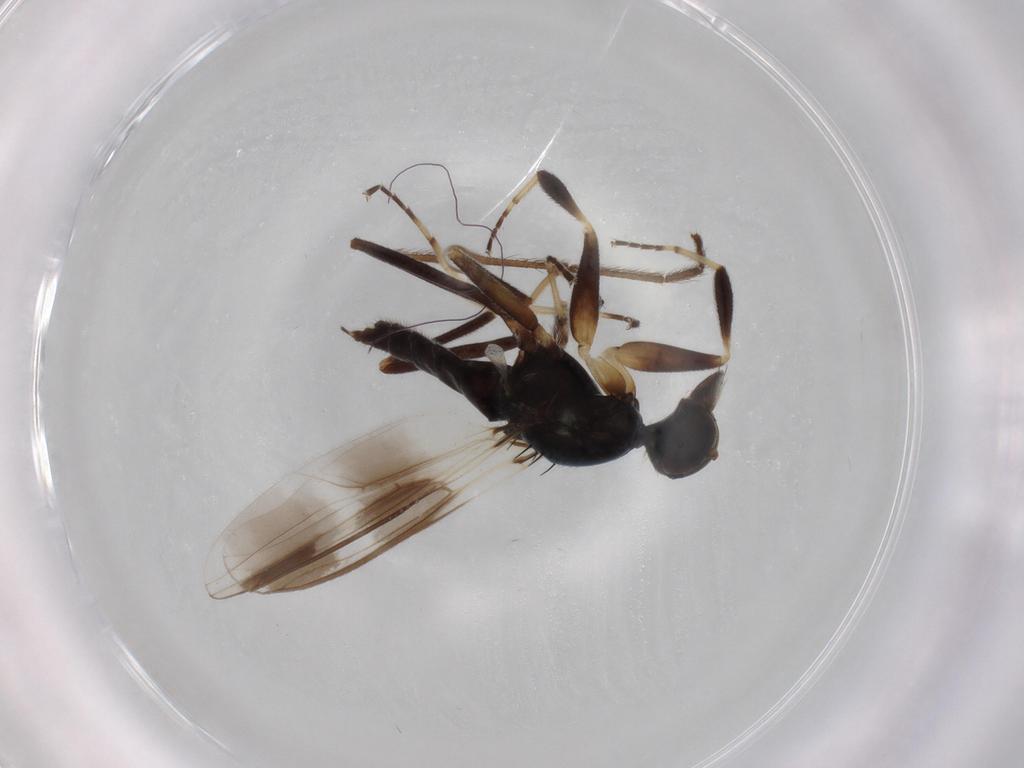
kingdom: Animalia
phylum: Arthropoda
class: Insecta
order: Diptera
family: Hybotidae
